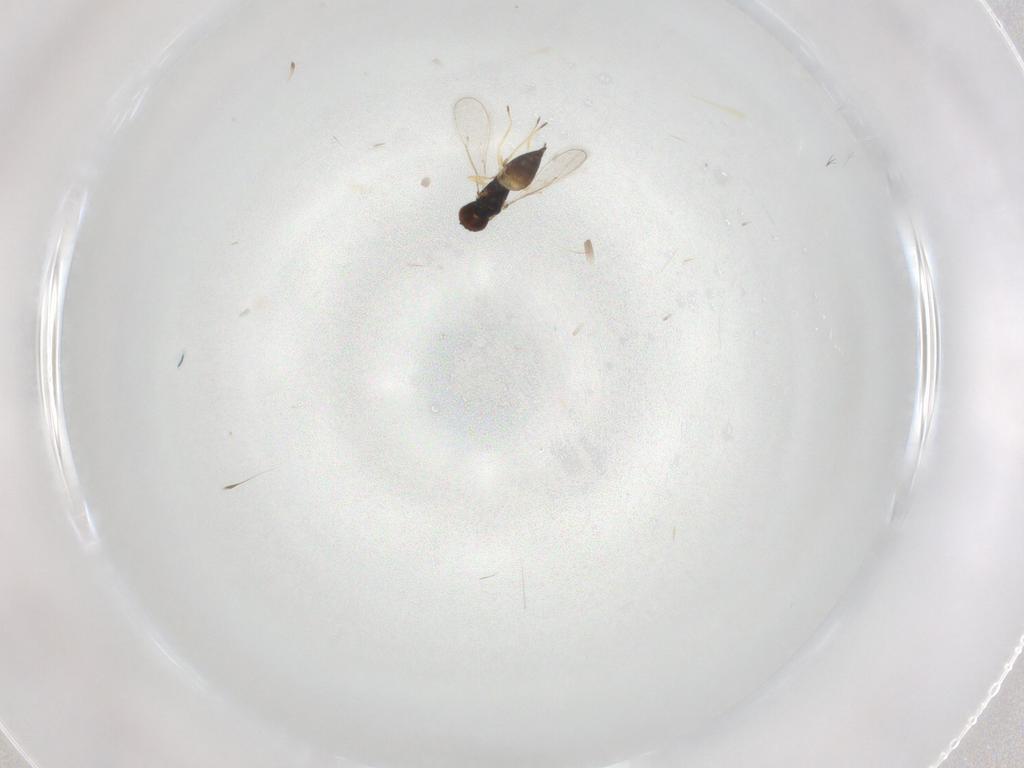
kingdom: Animalia
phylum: Arthropoda
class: Insecta
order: Hymenoptera
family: Eulophidae
